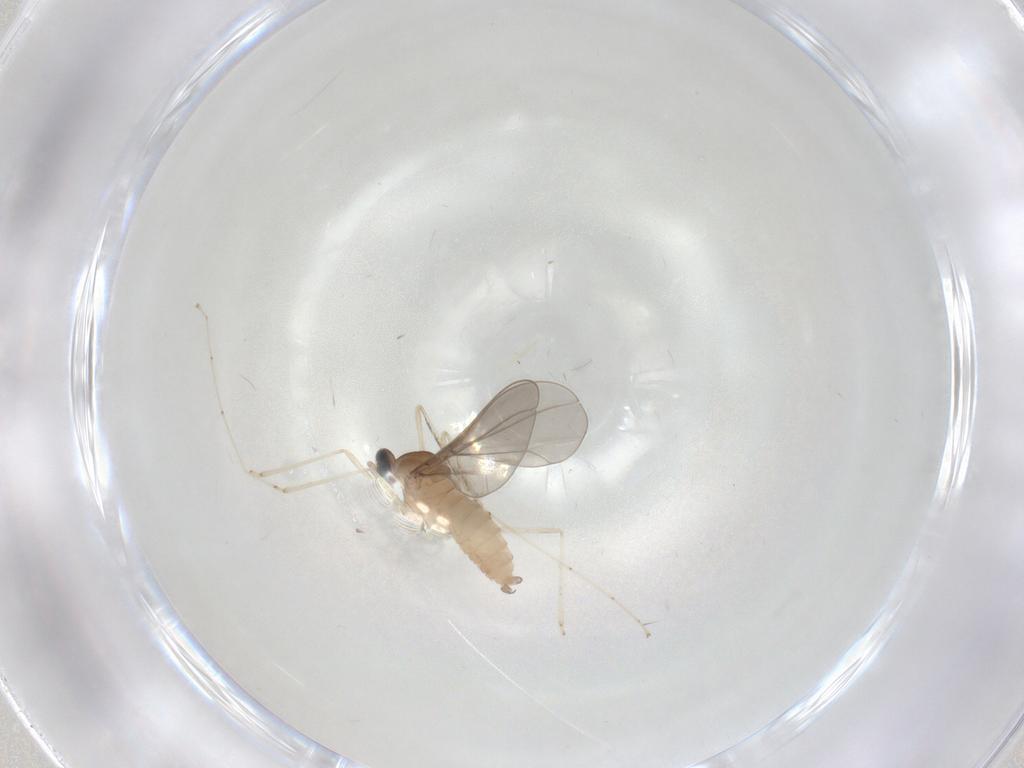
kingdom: Animalia
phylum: Arthropoda
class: Insecta
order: Diptera
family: Cecidomyiidae
